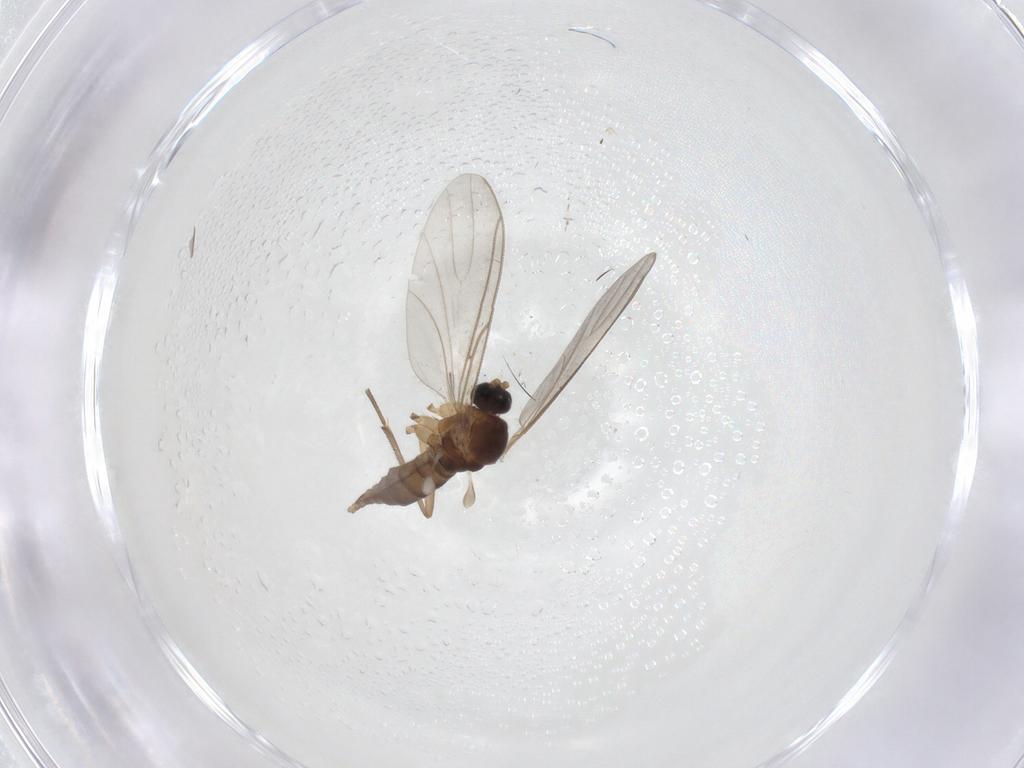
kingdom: Animalia
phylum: Arthropoda
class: Insecta
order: Diptera
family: Sciaridae
